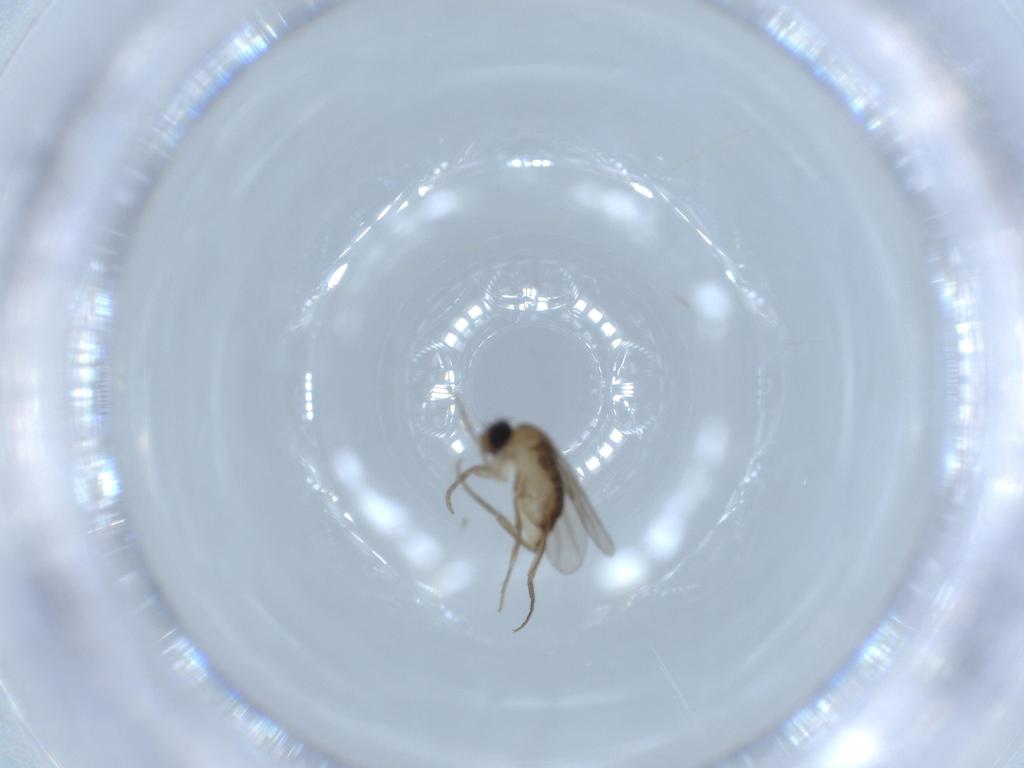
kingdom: Animalia
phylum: Arthropoda
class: Insecta
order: Diptera
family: Phoridae
